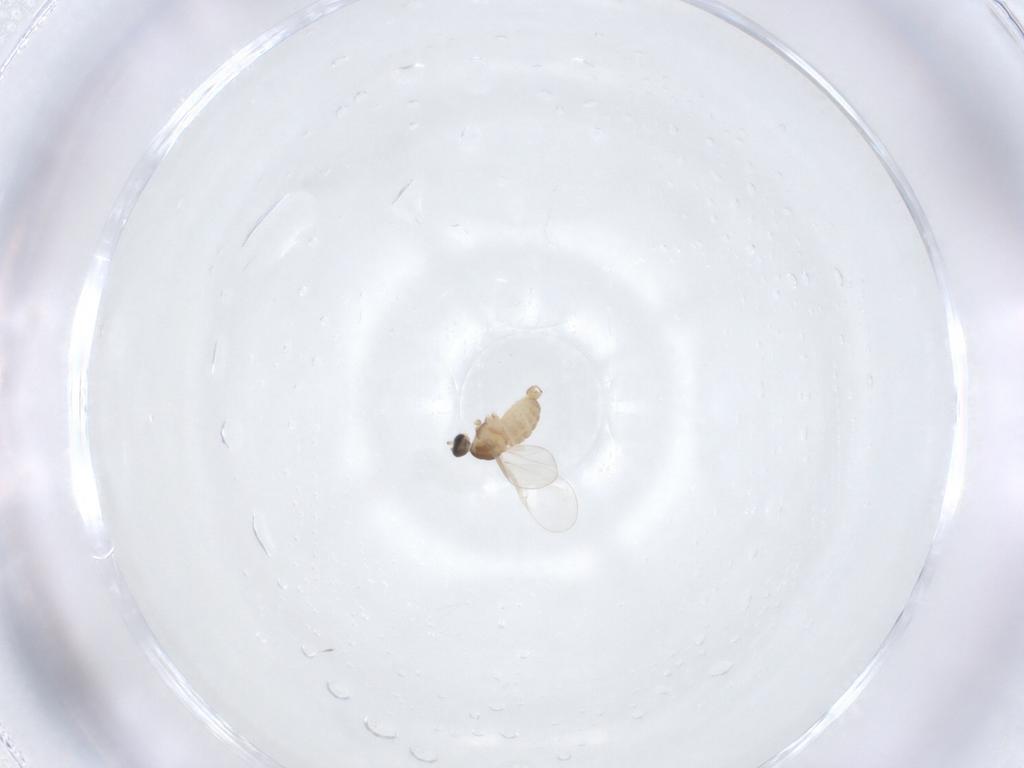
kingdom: Animalia
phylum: Arthropoda
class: Insecta
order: Diptera
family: Cecidomyiidae
